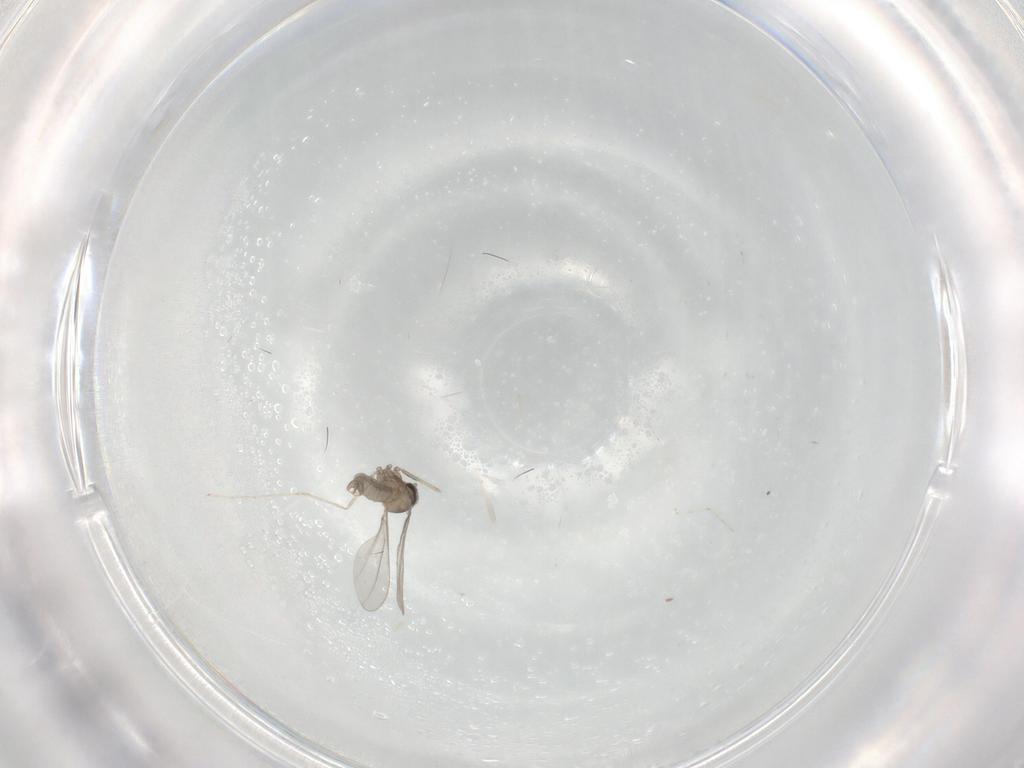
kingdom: Animalia
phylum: Arthropoda
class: Insecta
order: Diptera
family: Cecidomyiidae
